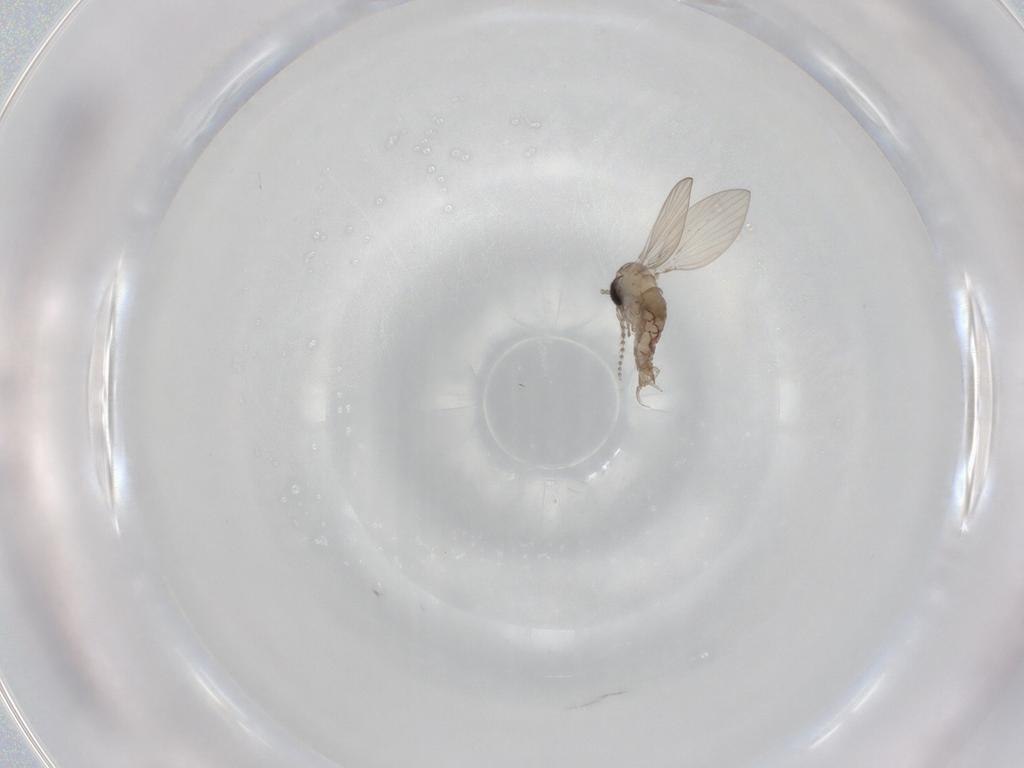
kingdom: Animalia
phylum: Arthropoda
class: Insecta
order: Diptera
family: Psychodidae
